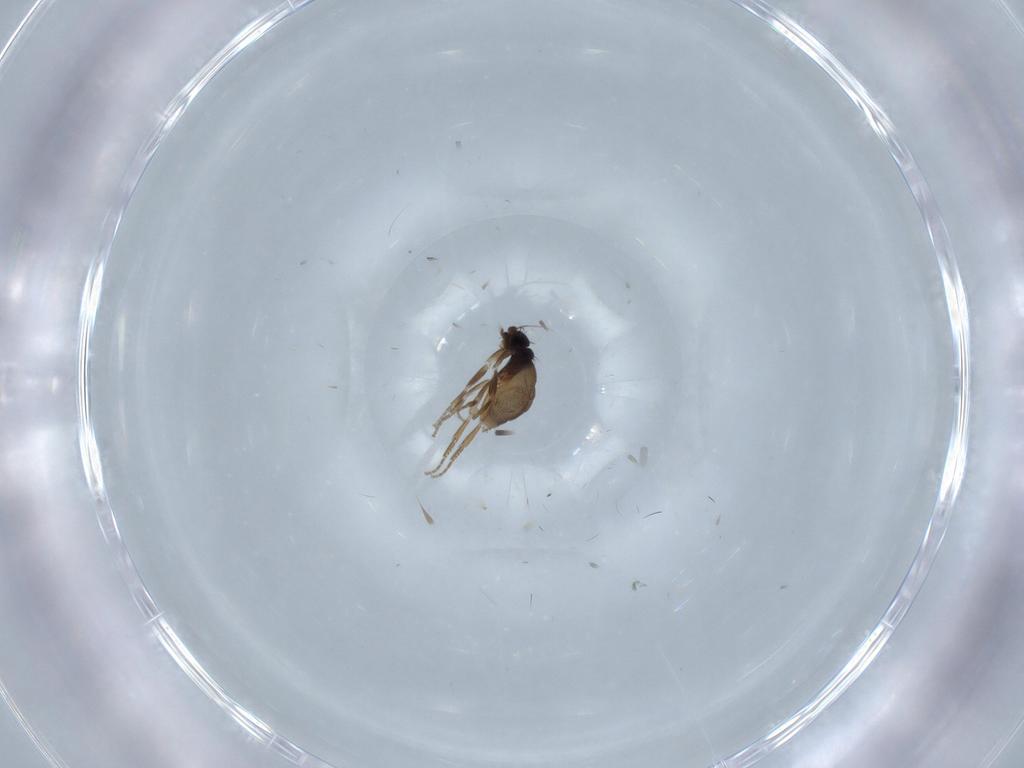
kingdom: Animalia
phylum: Arthropoda
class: Insecta
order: Diptera
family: Phoridae
